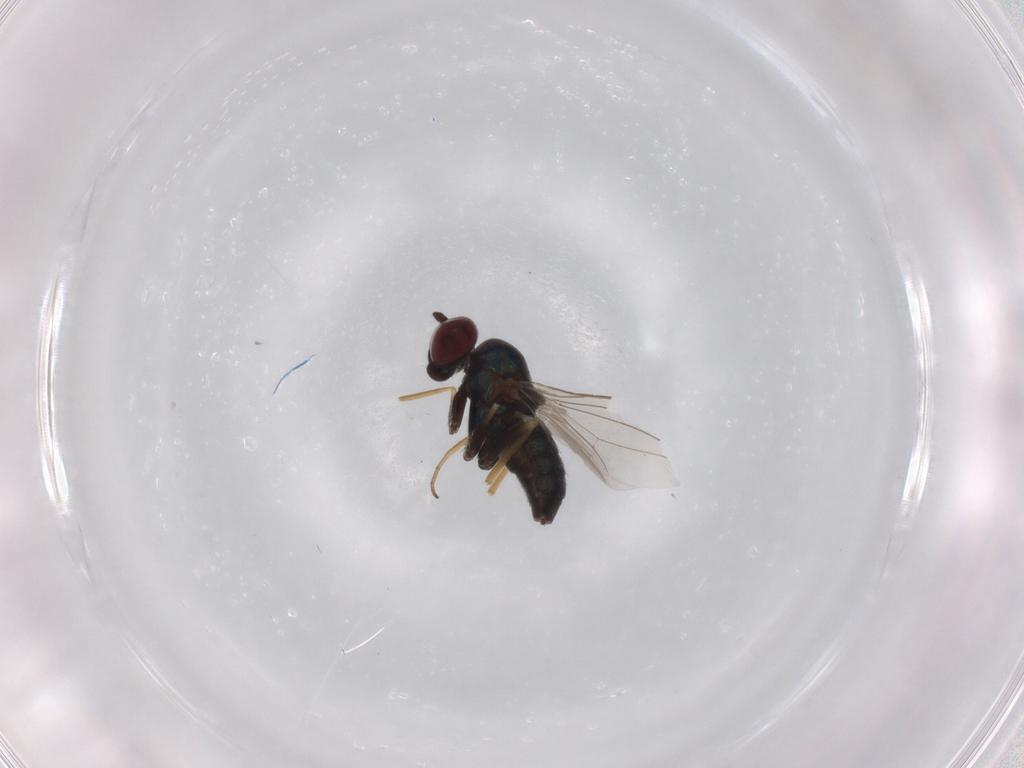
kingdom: Animalia
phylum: Arthropoda
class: Insecta
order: Diptera
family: Dolichopodidae
